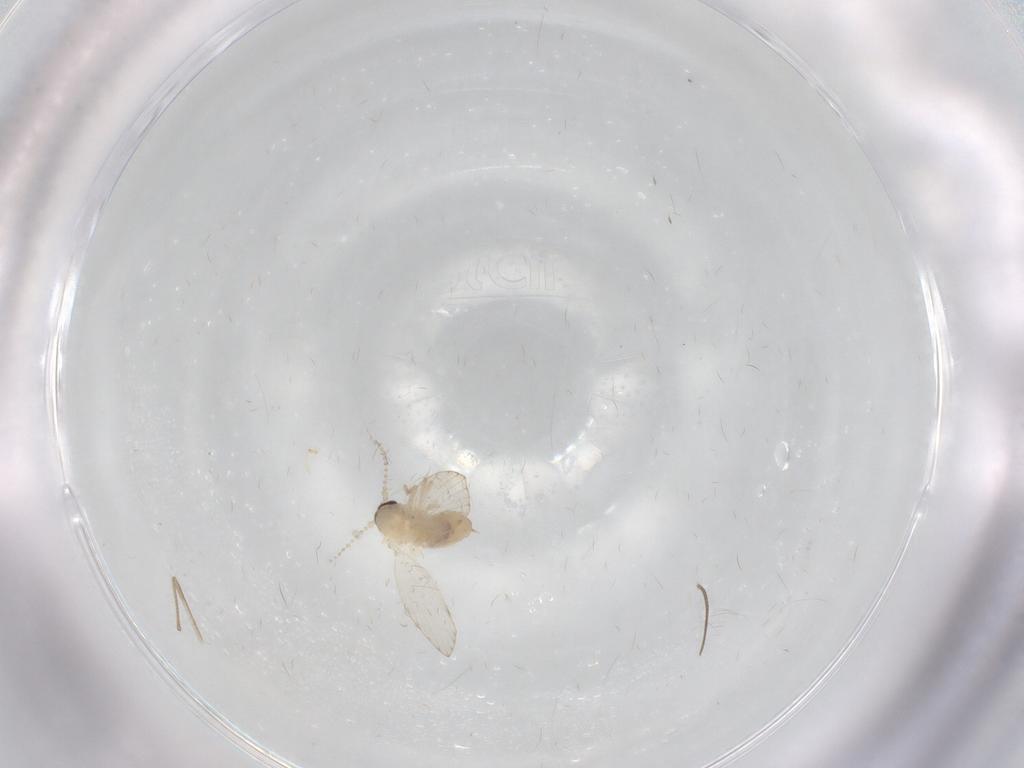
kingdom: Animalia
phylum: Arthropoda
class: Insecta
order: Diptera
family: Psychodidae
